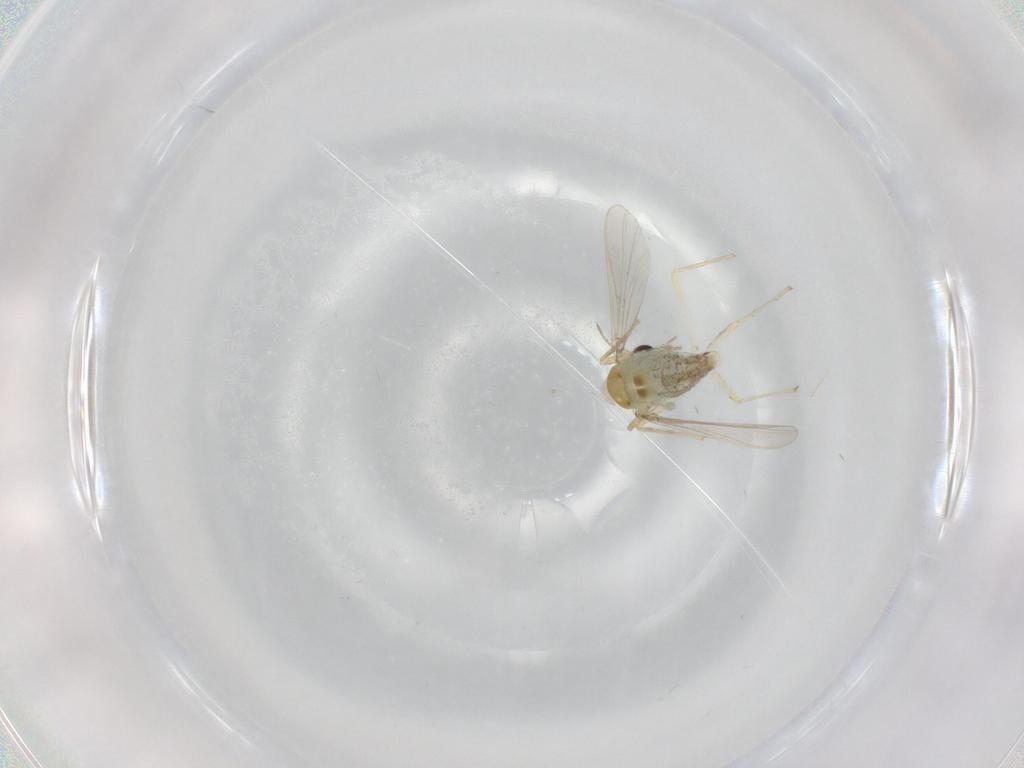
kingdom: Animalia
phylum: Arthropoda
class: Insecta
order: Diptera
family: Chironomidae
